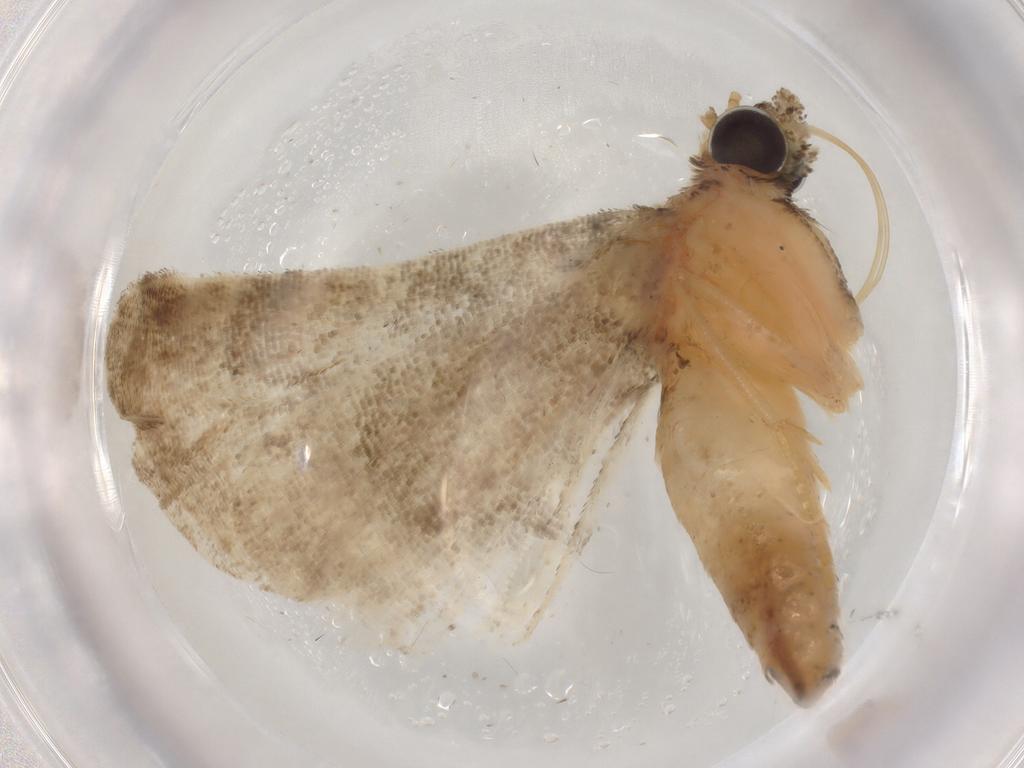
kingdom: Animalia
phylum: Arthropoda
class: Insecta
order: Lepidoptera
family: Geometridae
